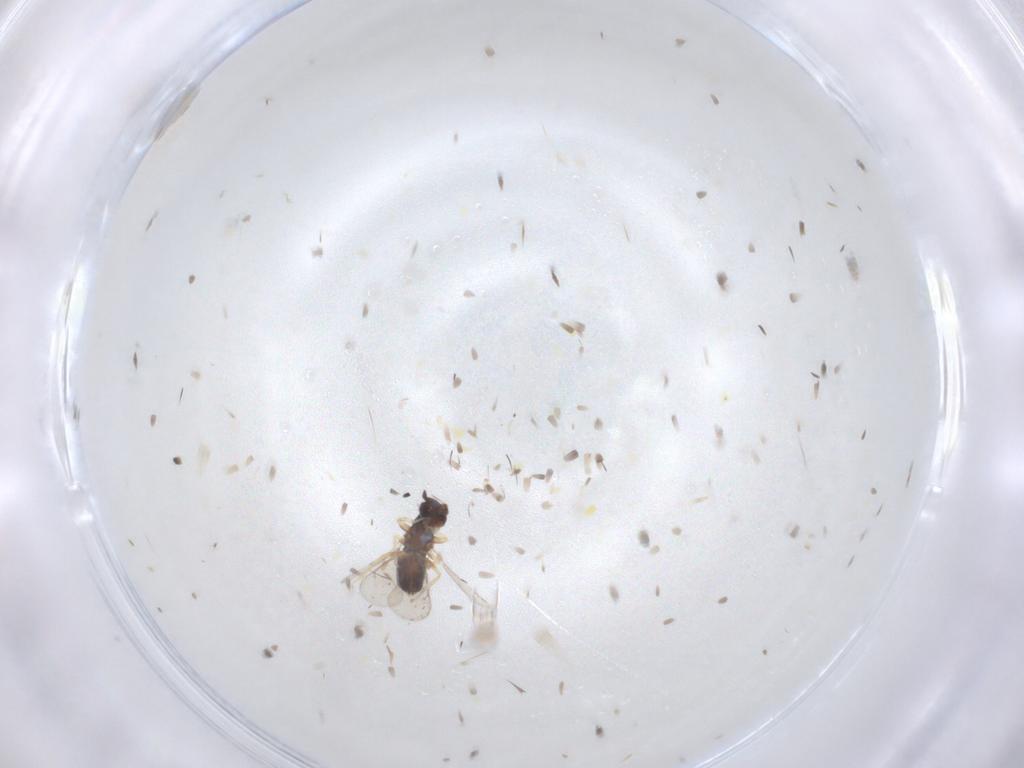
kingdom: Animalia
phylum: Arthropoda
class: Insecta
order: Hymenoptera
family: Eulophidae
